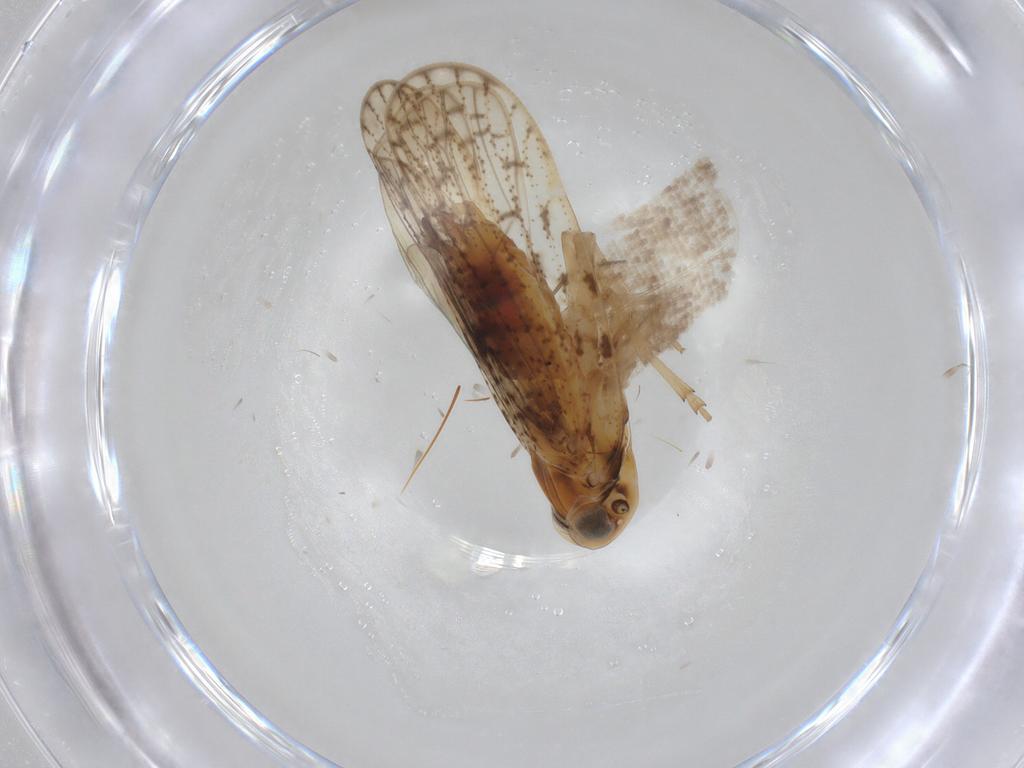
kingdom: Animalia
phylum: Arthropoda
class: Insecta
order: Lepidoptera
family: Geometridae
